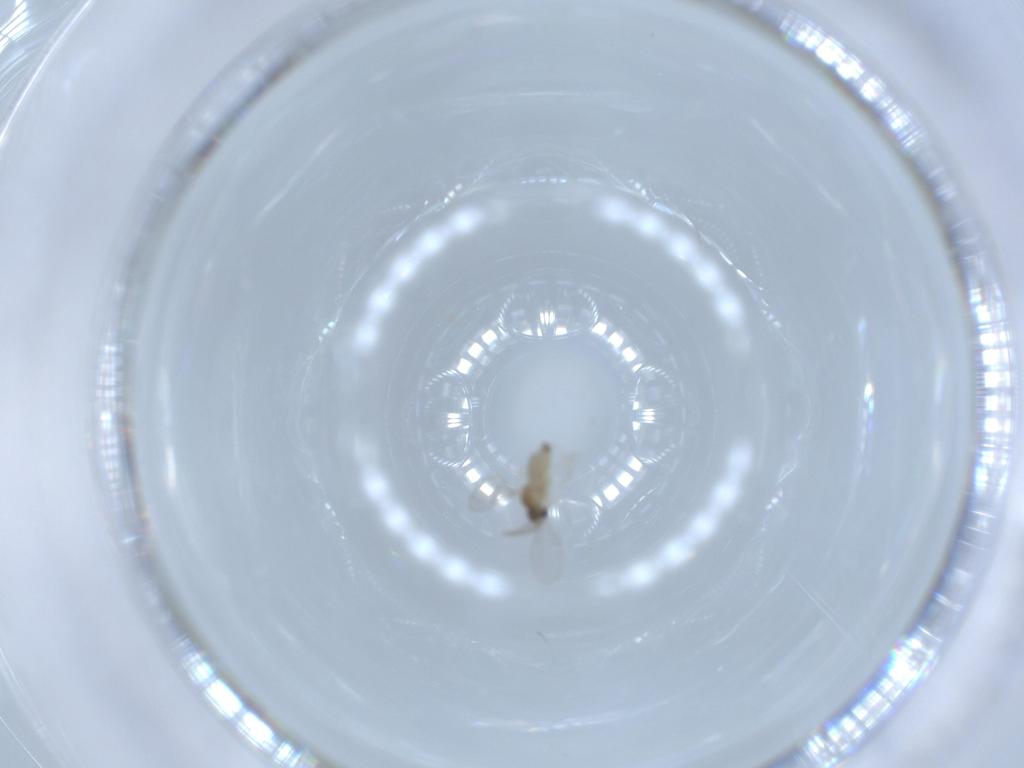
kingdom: Animalia
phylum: Arthropoda
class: Insecta
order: Diptera
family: Cecidomyiidae
